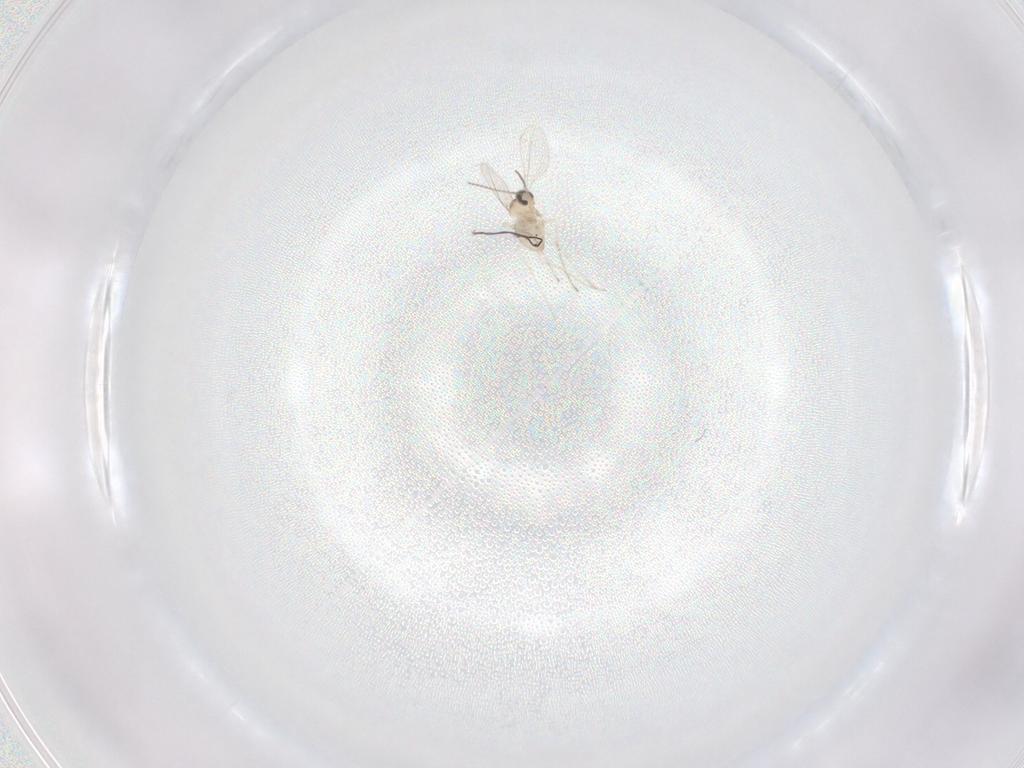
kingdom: Animalia
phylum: Arthropoda
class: Insecta
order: Diptera
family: Cecidomyiidae
